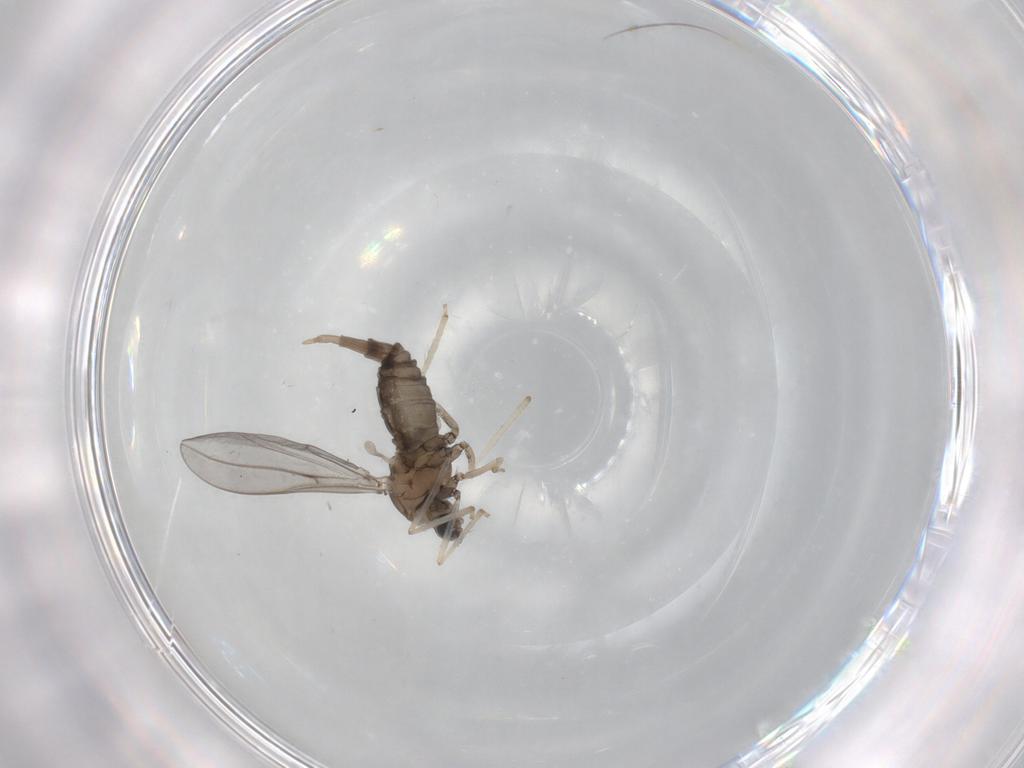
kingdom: Animalia
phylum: Arthropoda
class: Insecta
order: Diptera
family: Cecidomyiidae
